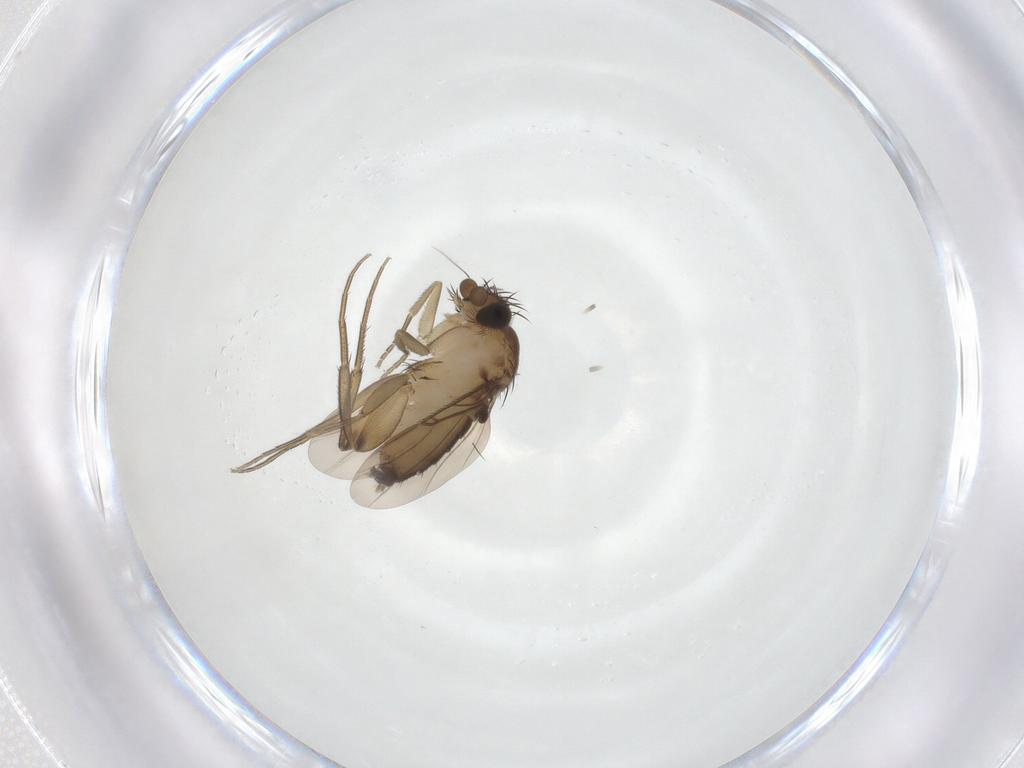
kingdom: Animalia
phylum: Arthropoda
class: Insecta
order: Diptera
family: Phoridae
